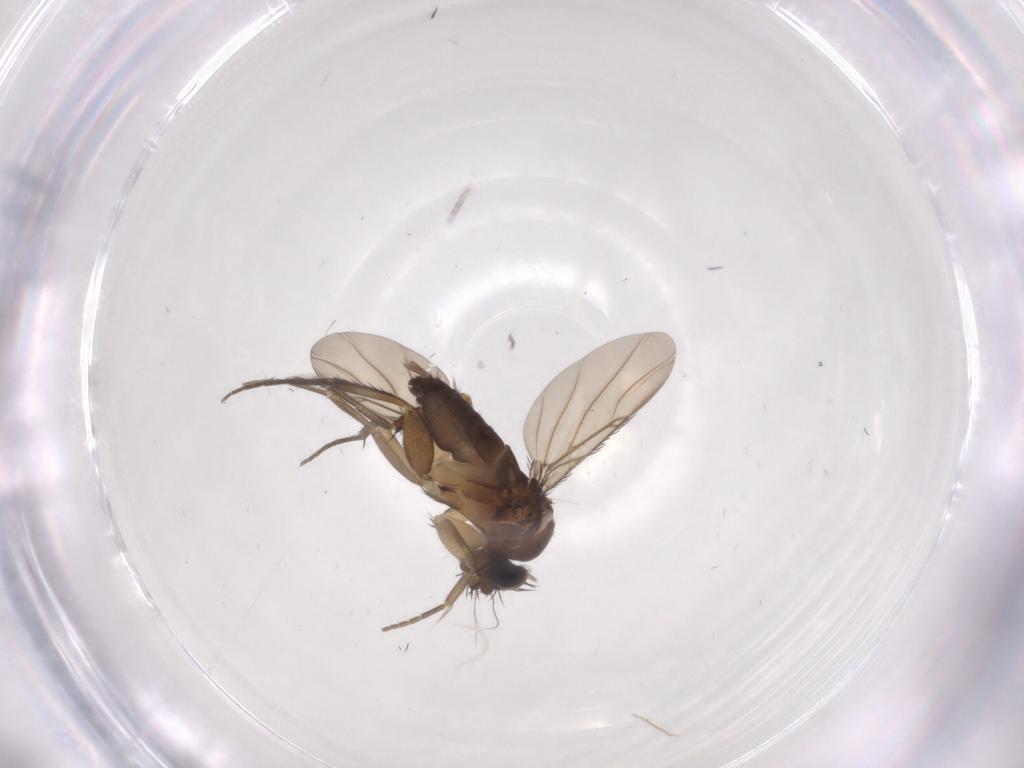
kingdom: Animalia
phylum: Arthropoda
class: Insecta
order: Diptera
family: Phoridae
